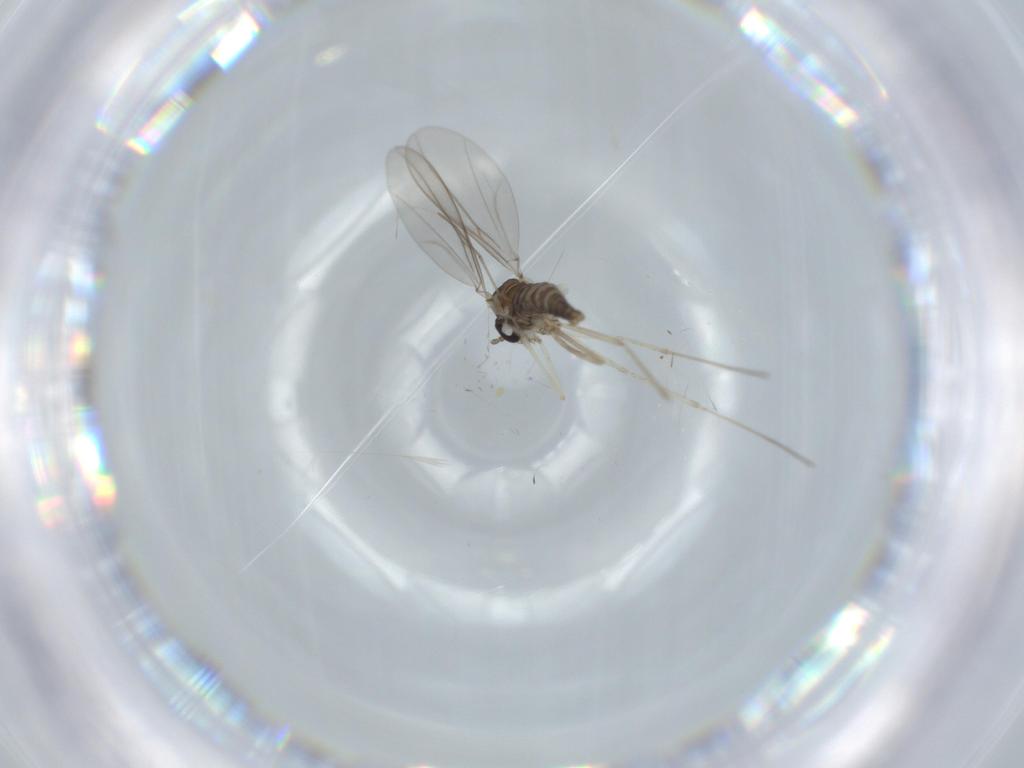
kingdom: Animalia
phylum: Arthropoda
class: Insecta
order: Diptera
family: Cecidomyiidae
